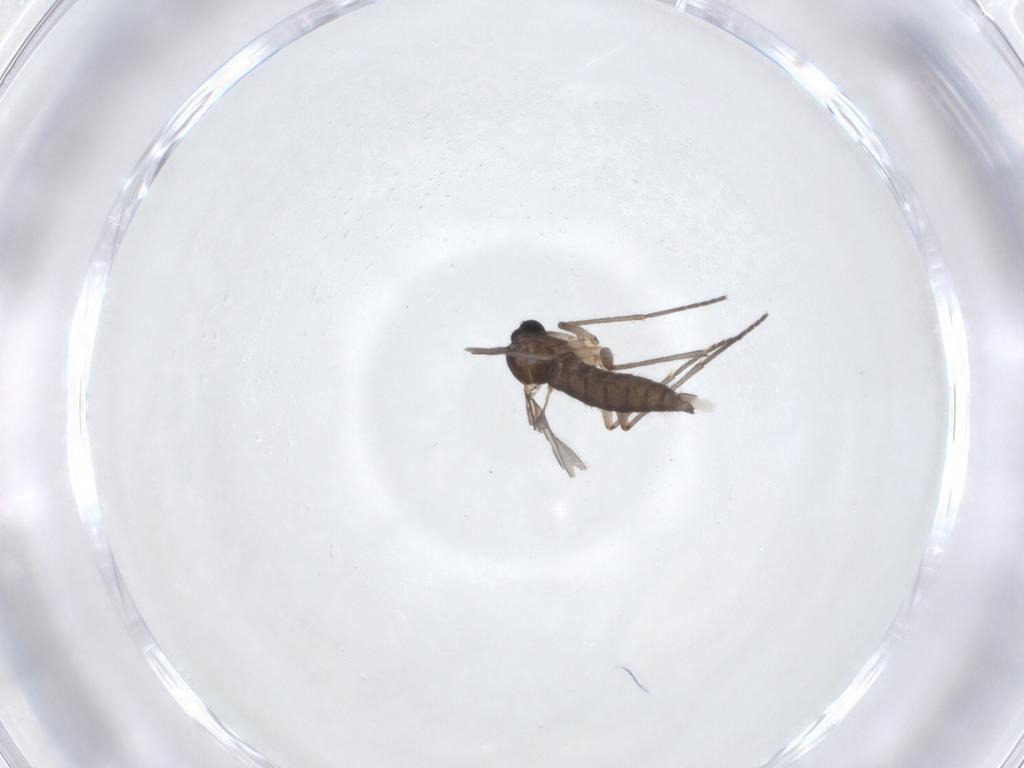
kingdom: Animalia
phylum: Arthropoda
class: Insecta
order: Diptera
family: Sciaridae
